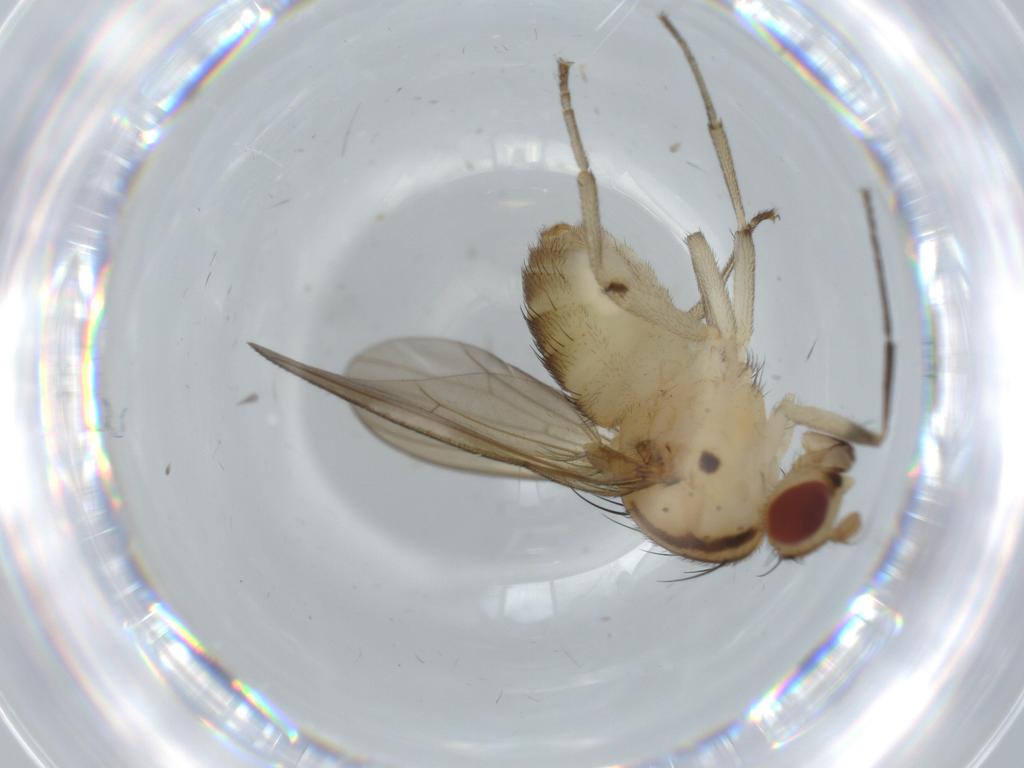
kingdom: Animalia
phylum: Arthropoda
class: Insecta
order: Diptera
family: Lauxaniidae
